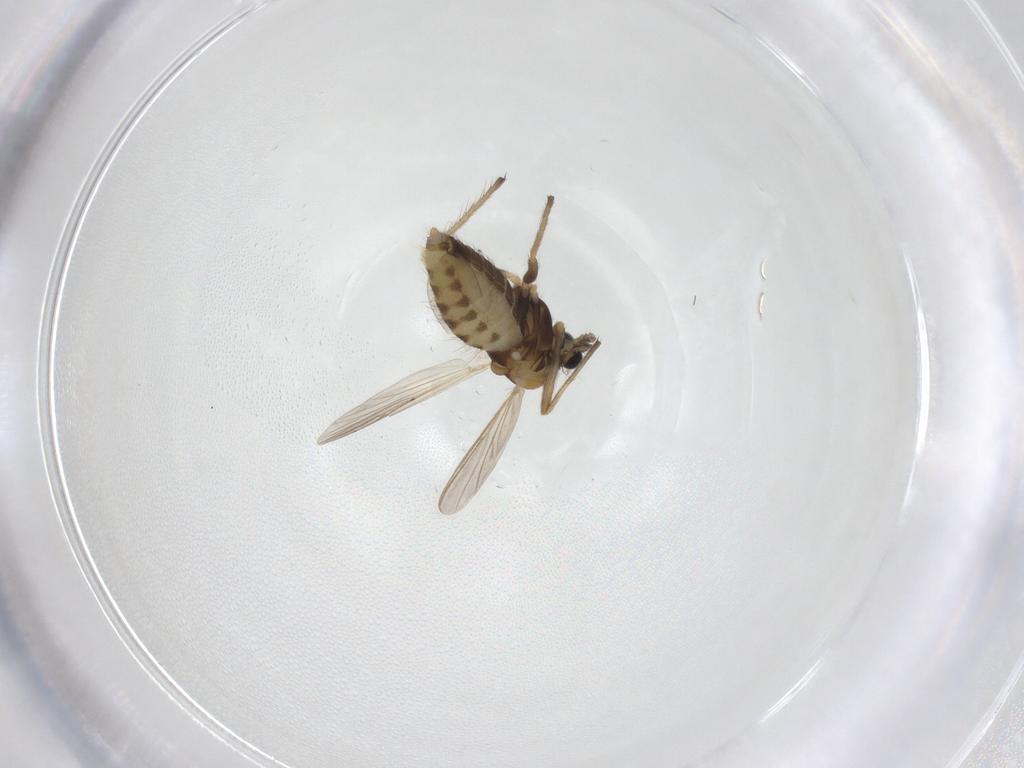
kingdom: Animalia
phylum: Arthropoda
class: Insecta
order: Diptera
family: Chironomidae
